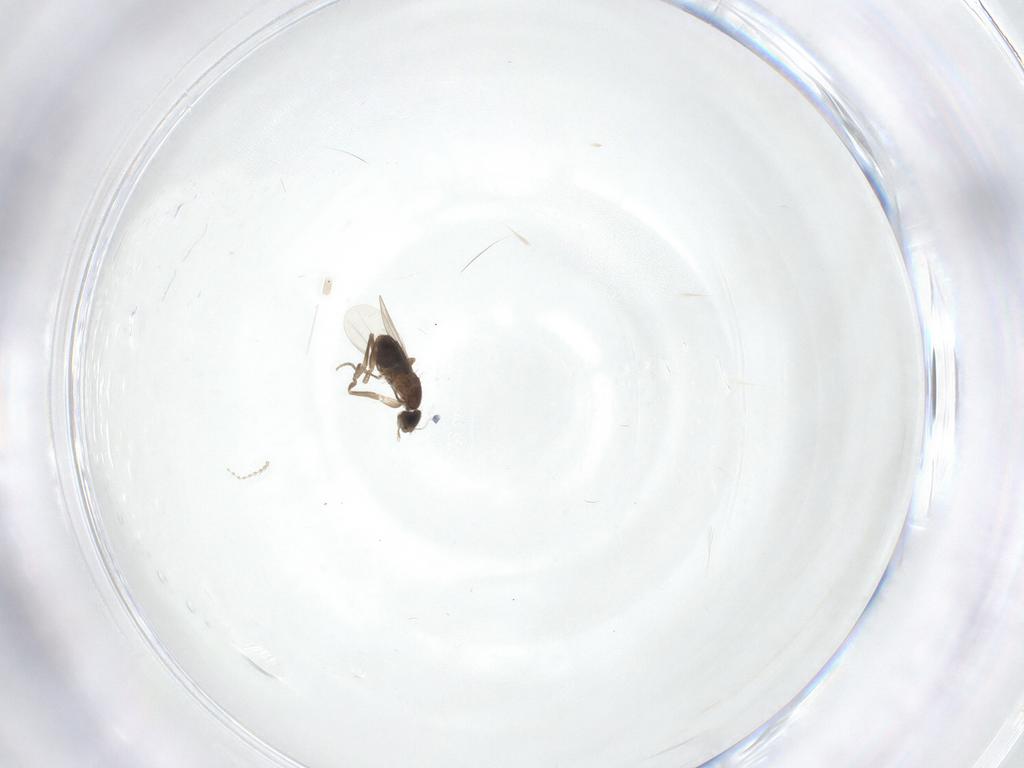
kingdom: Animalia
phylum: Arthropoda
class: Insecta
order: Diptera
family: Phoridae
